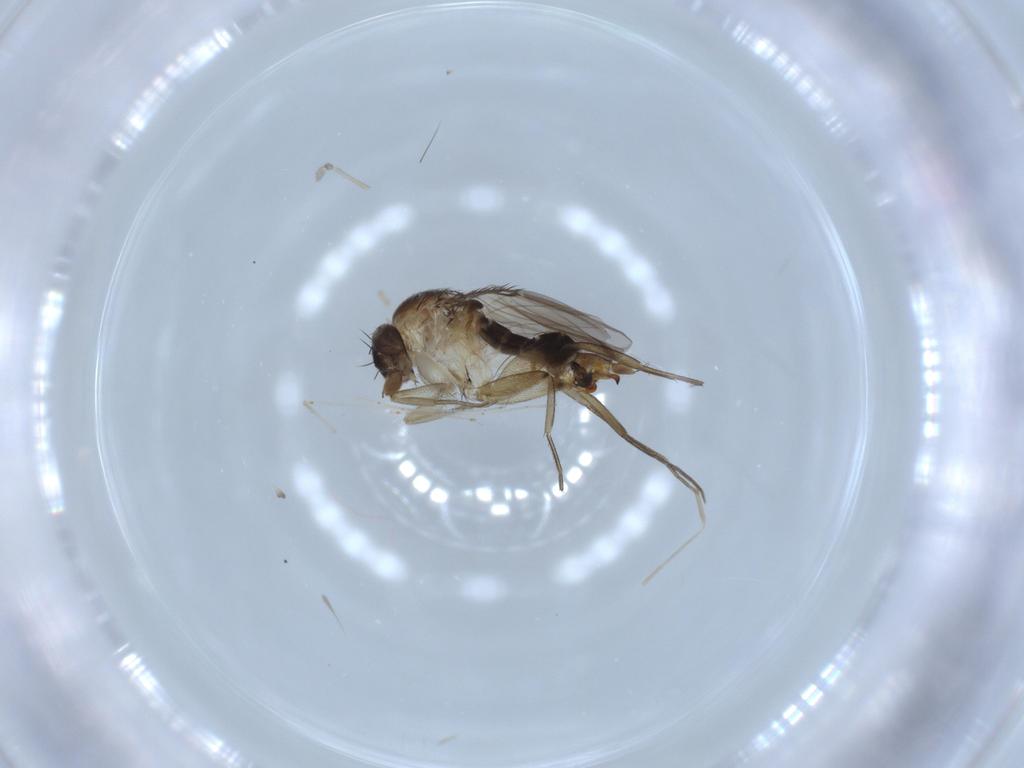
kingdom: Animalia
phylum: Arthropoda
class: Insecta
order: Diptera
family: Phoridae
